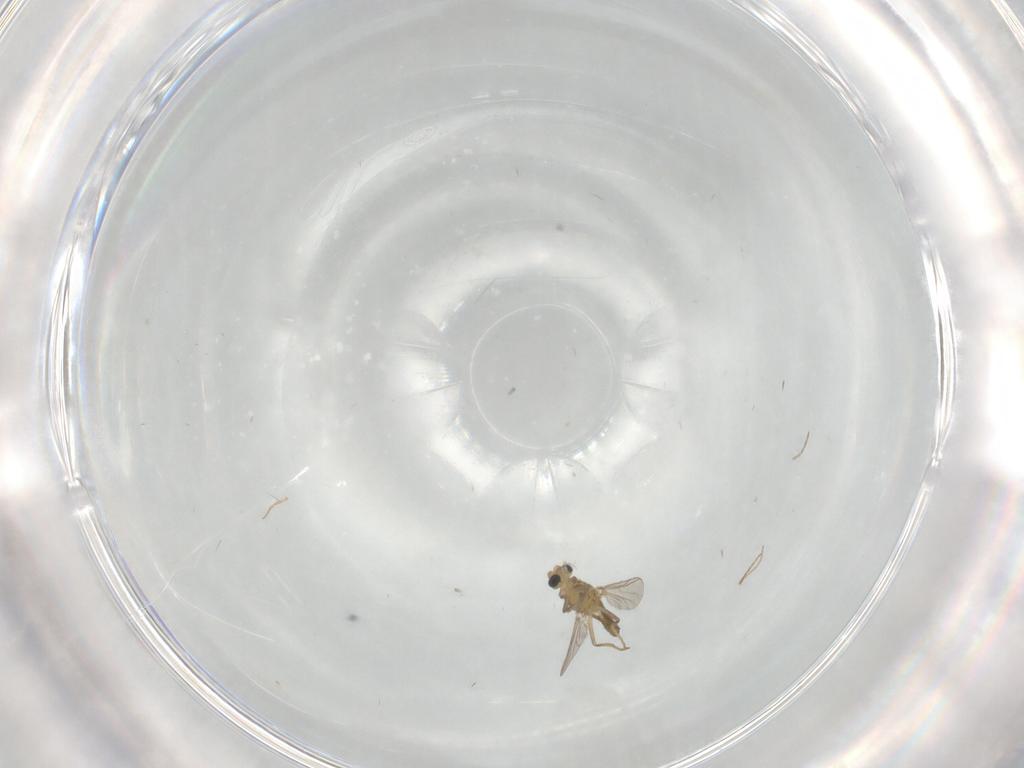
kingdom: Animalia
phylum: Arthropoda
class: Insecta
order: Diptera
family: Chironomidae
